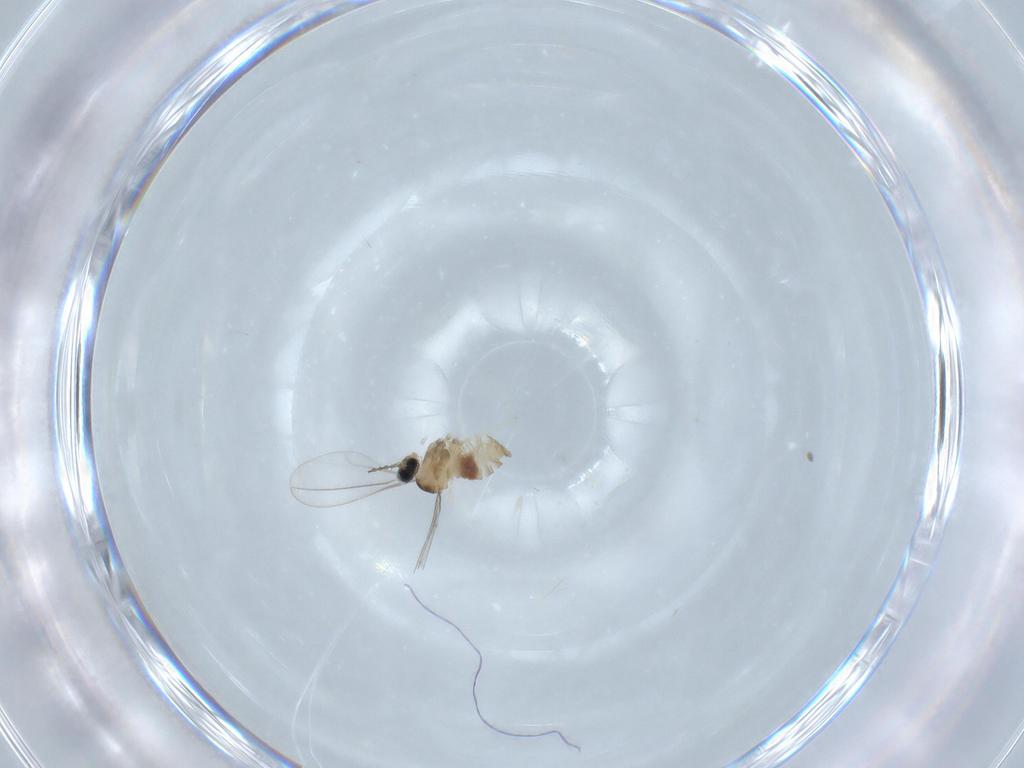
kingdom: Animalia
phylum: Arthropoda
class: Insecta
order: Diptera
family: Cecidomyiidae
